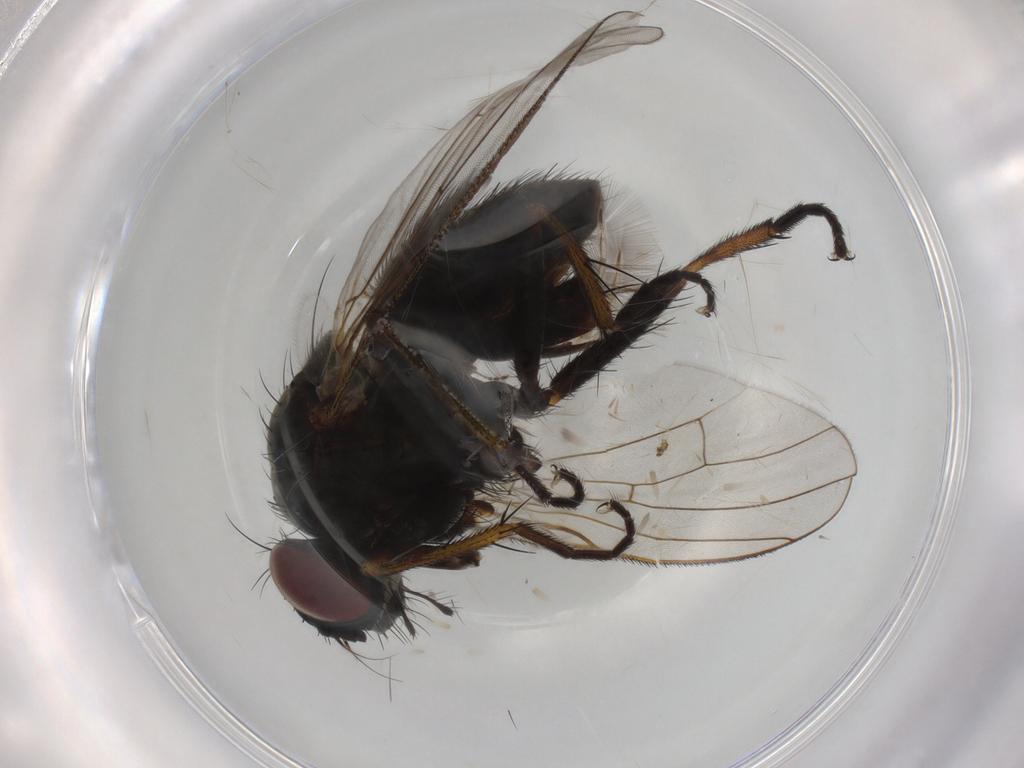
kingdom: Animalia
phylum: Arthropoda
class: Insecta
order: Diptera
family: Muscidae
